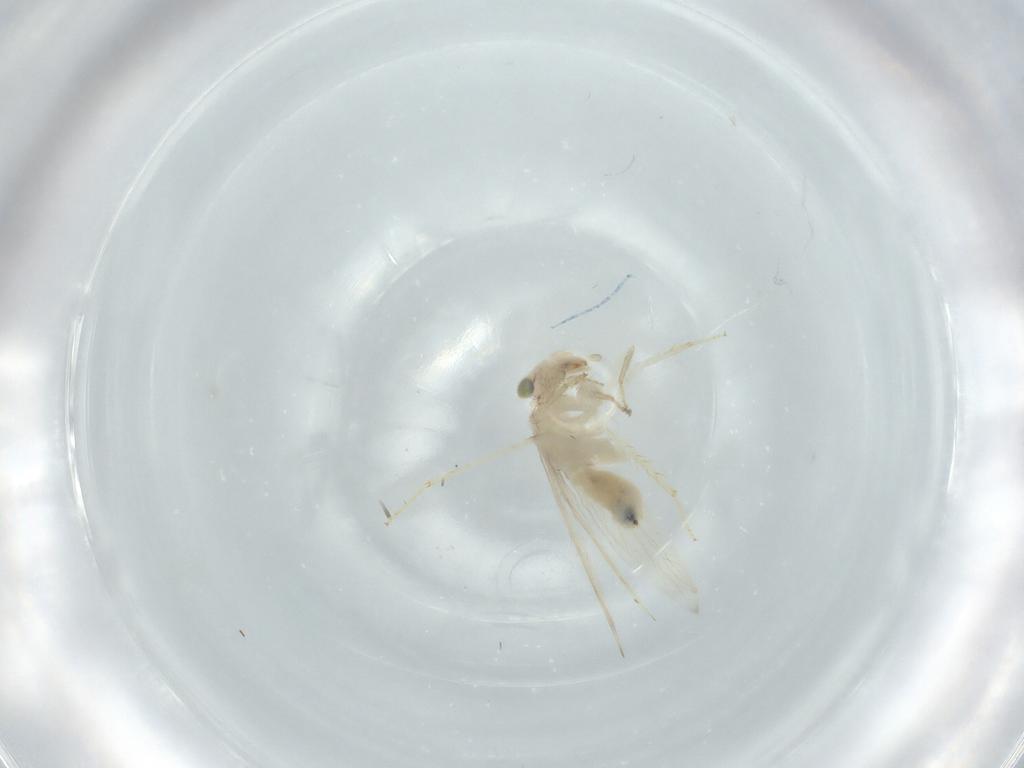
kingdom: Animalia
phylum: Arthropoda
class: Insecta
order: Psocodea
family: Lepidopsocidae
